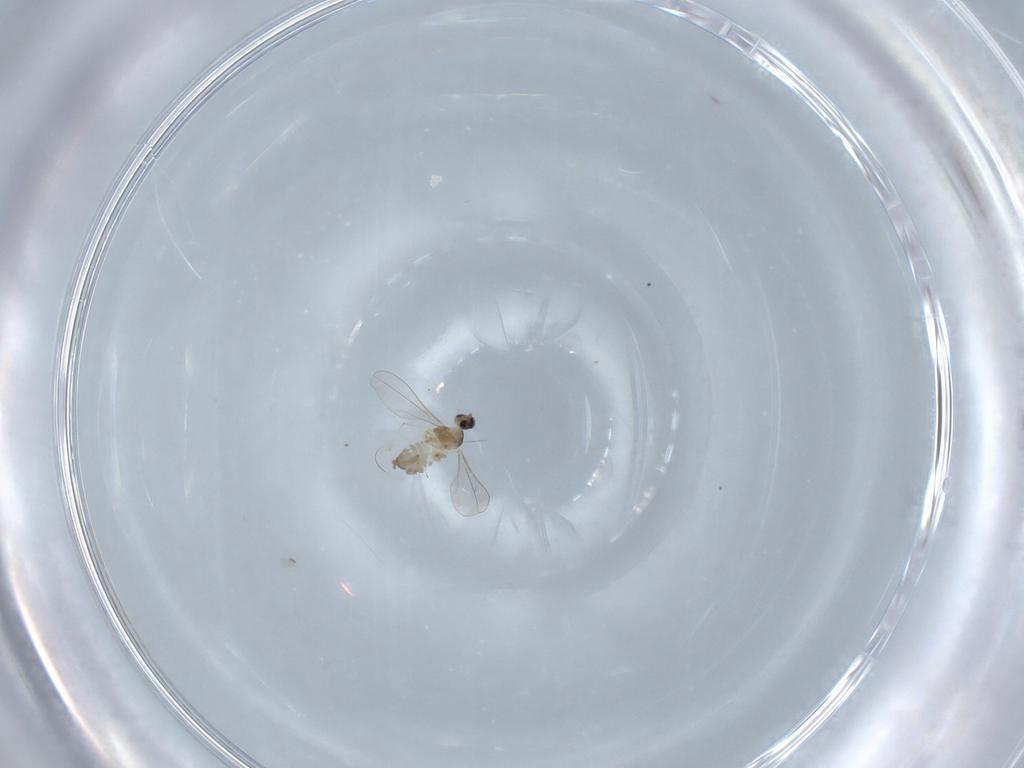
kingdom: Animalia
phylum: Arthropoda
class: Insecta
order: Diptera
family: Cecidomyiidae
